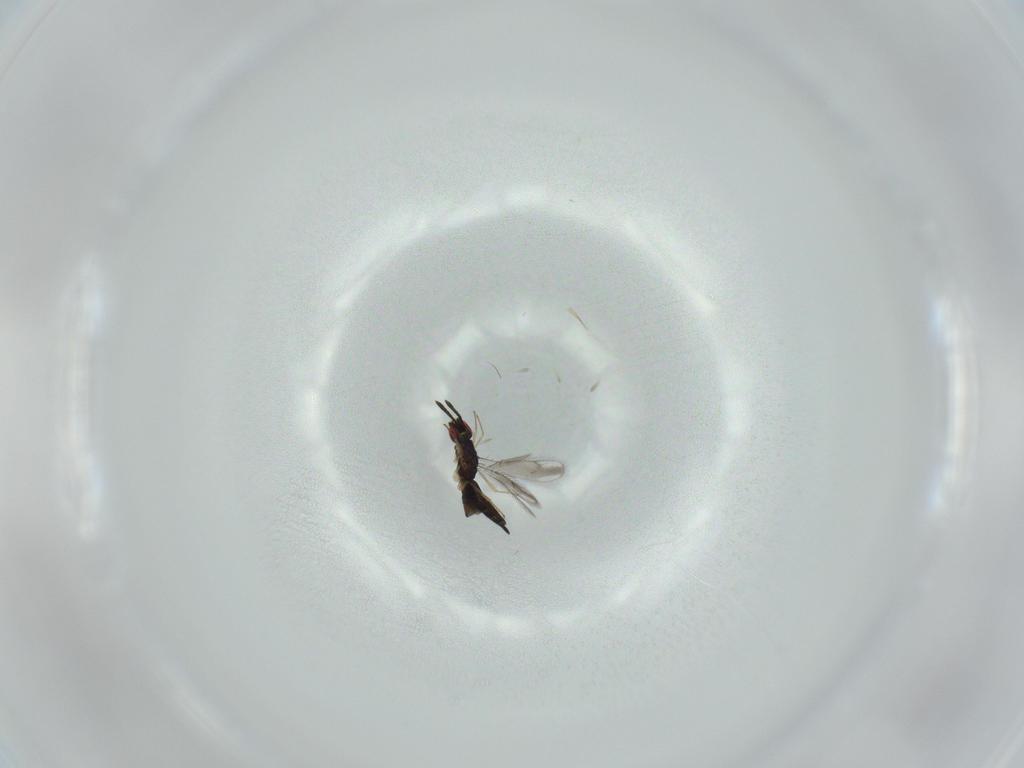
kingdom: Animalia
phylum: Arthropoda
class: Insecta
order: Hymenoptera
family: Pteromalidae
